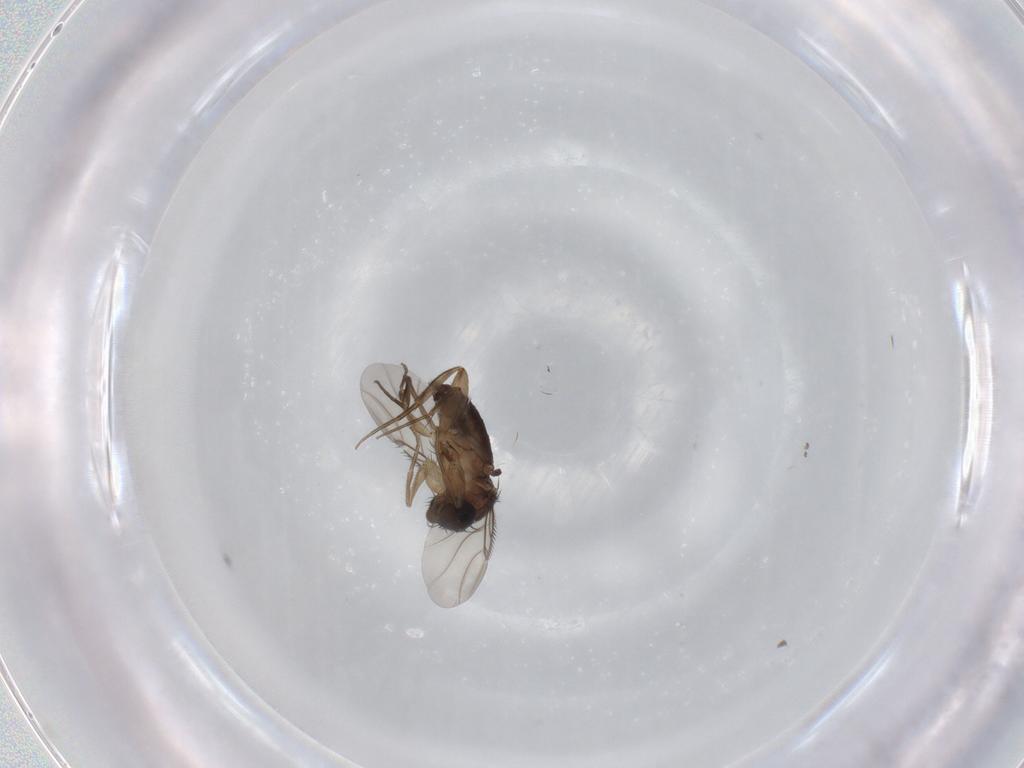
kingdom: Animalia
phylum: Arthropoda
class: Insecta
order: Diptera
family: Phoridae
